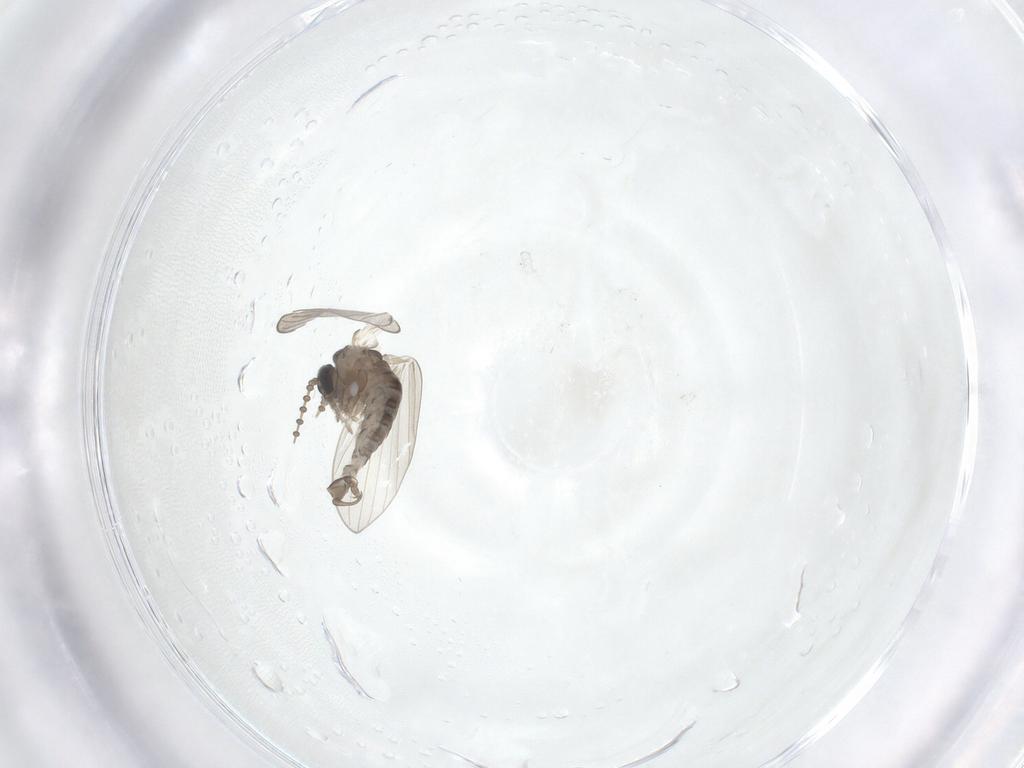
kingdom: Animalia
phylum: Arthropoda
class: Insecta
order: Diptera
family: Psychodidae
